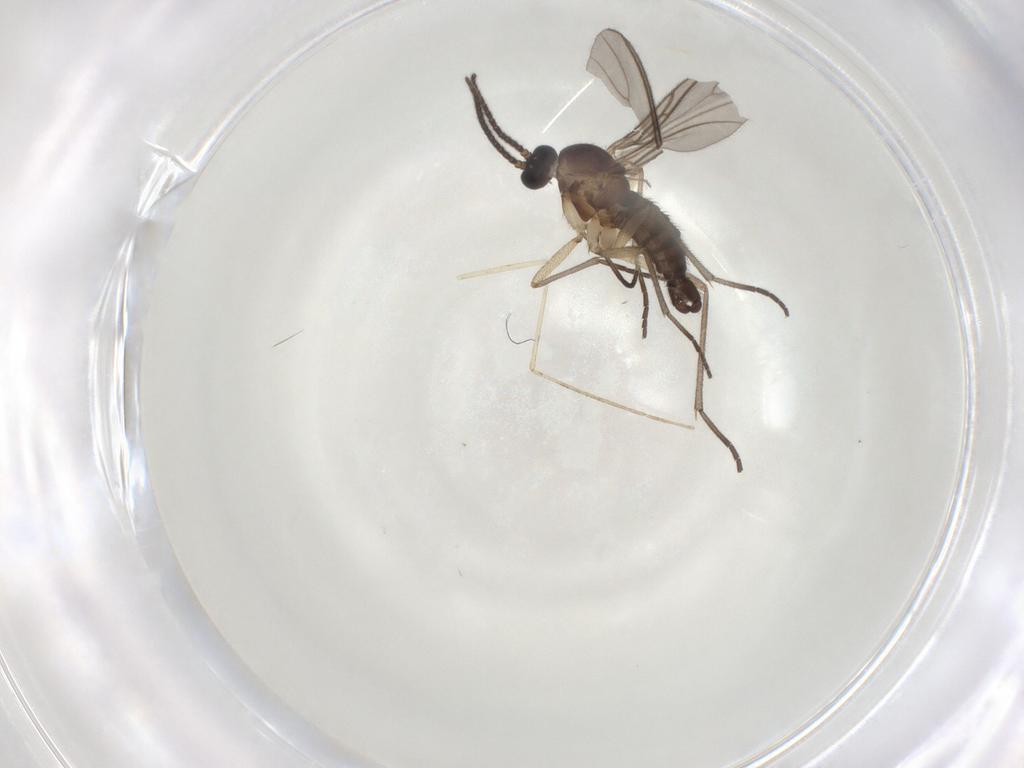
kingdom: Animalia
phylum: Arthropoda
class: Insecta
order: Diptera
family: Sciaridae
